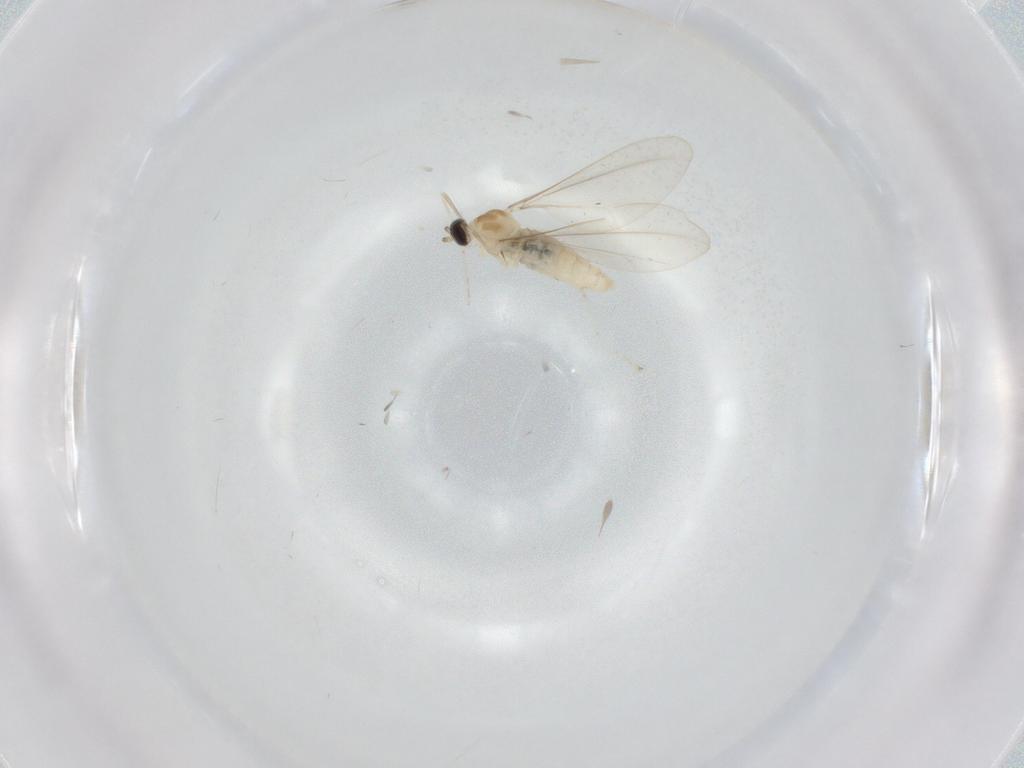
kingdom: Animalia
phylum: Arthropoda
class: Insecta
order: Diptera
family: Cecidomyiidae
